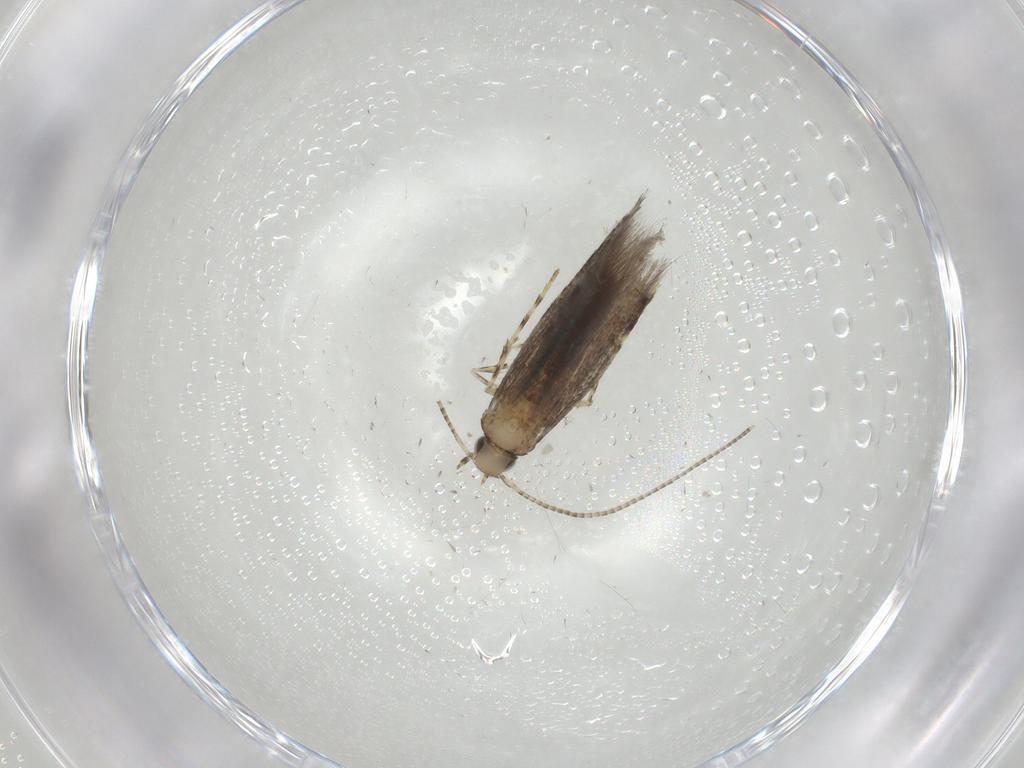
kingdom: Animalia
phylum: Arthropoda
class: Insecta
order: Lepidoptera
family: Gracillariidae
